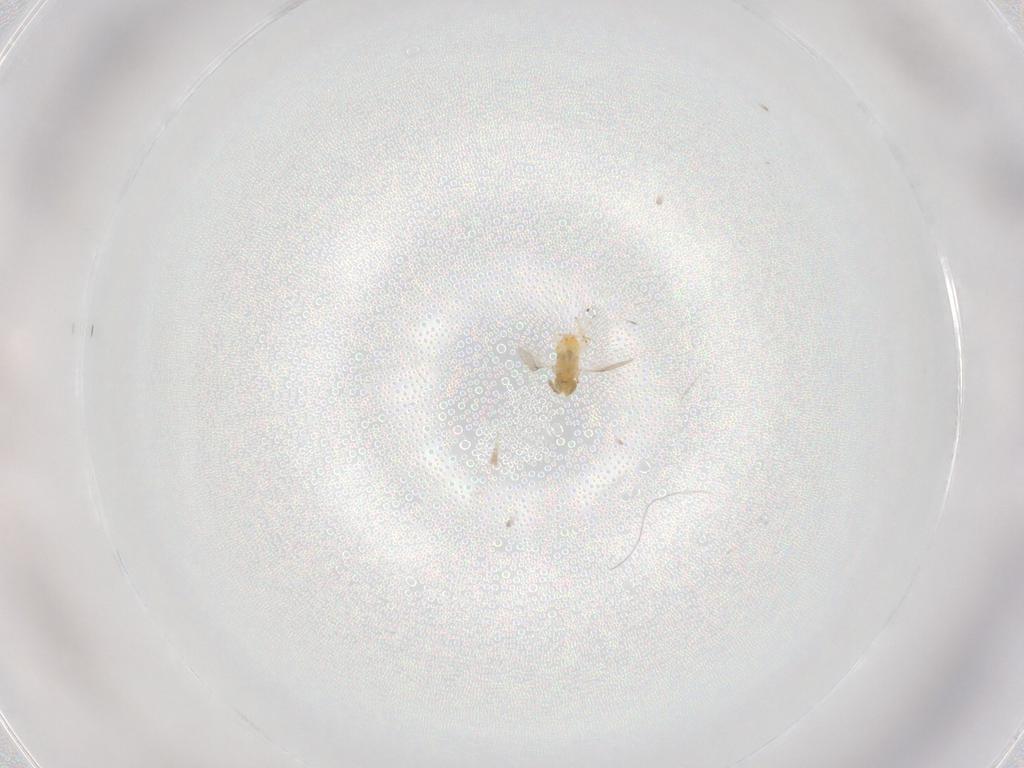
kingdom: Animalia
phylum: Arthropoda
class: Insecta
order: Hymenoptera
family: Encyrtidae
